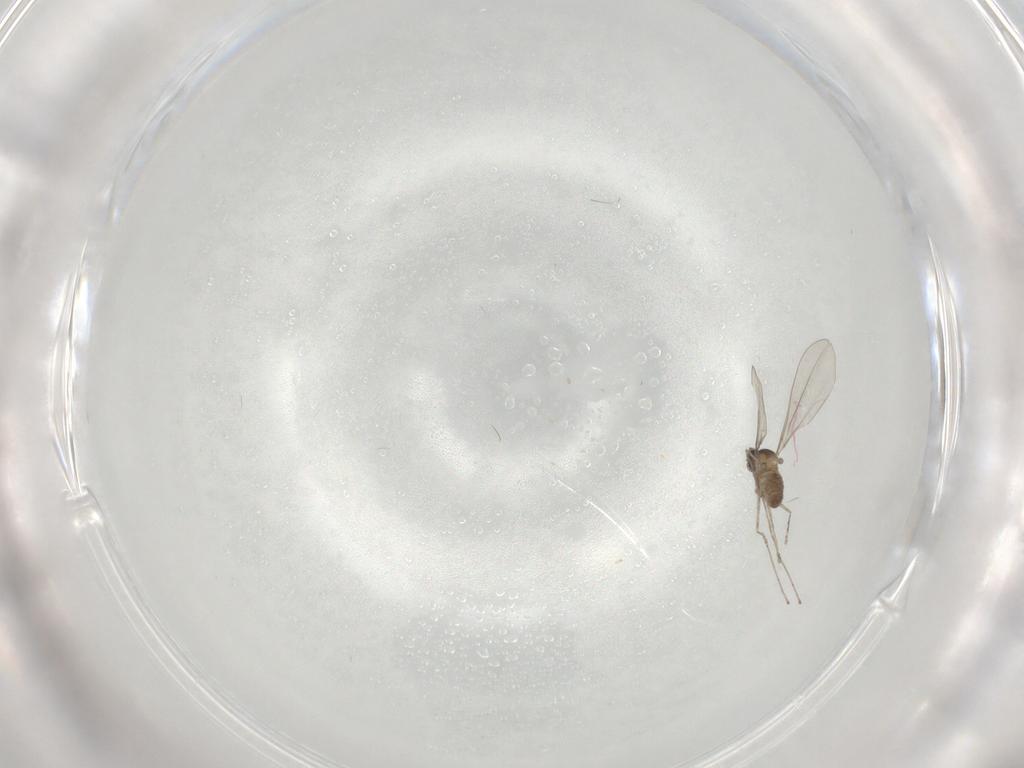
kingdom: Animalia
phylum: Arthropoda
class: Insecta
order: Diptera
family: Cecidomyiidae
